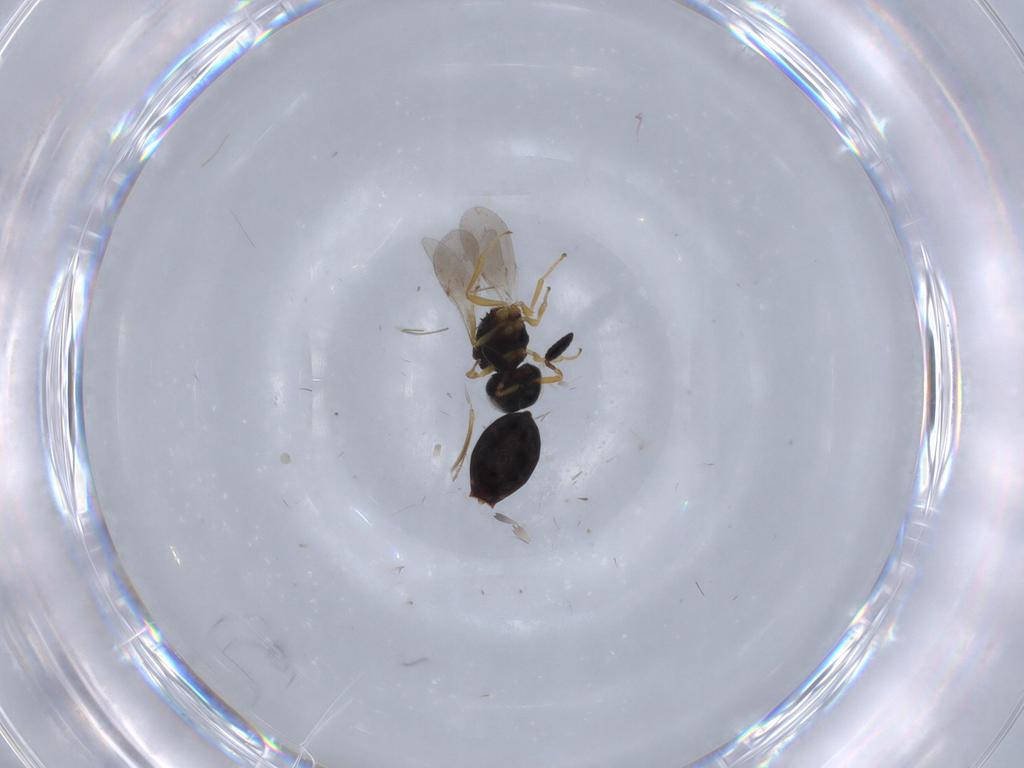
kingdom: Animalia
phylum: Arthropoda
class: Insecta
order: Hymenoptera
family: Scelionidae
